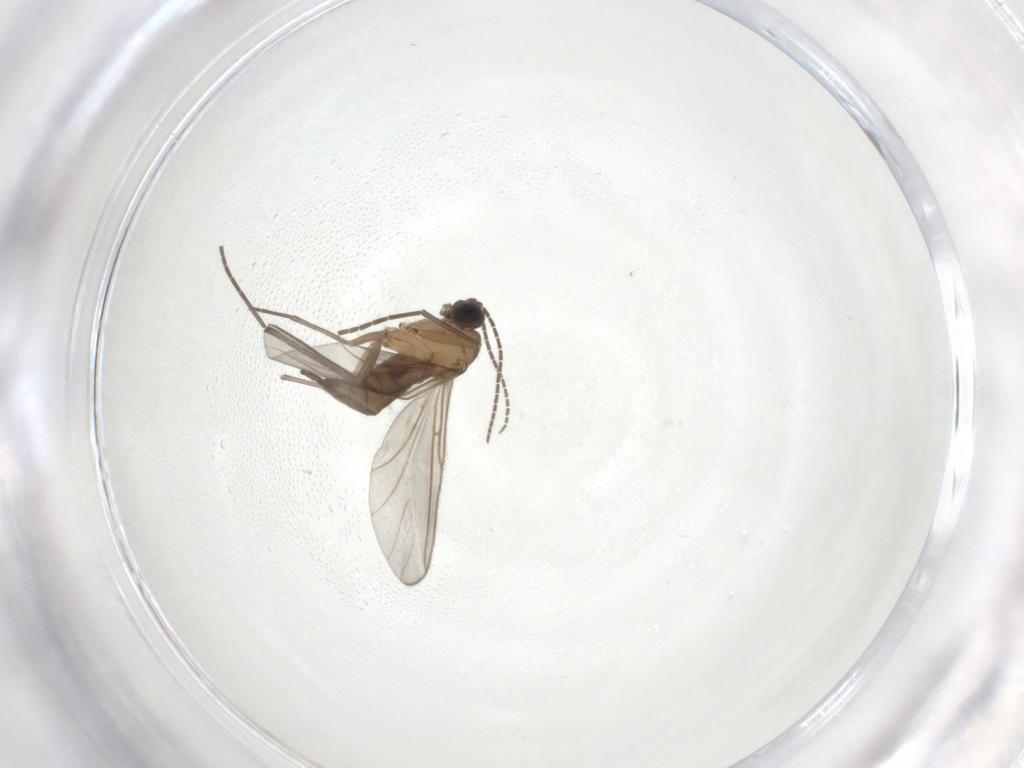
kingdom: Animalia
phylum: Arthropoda
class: Insecta
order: Diptera
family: Sciaridae
